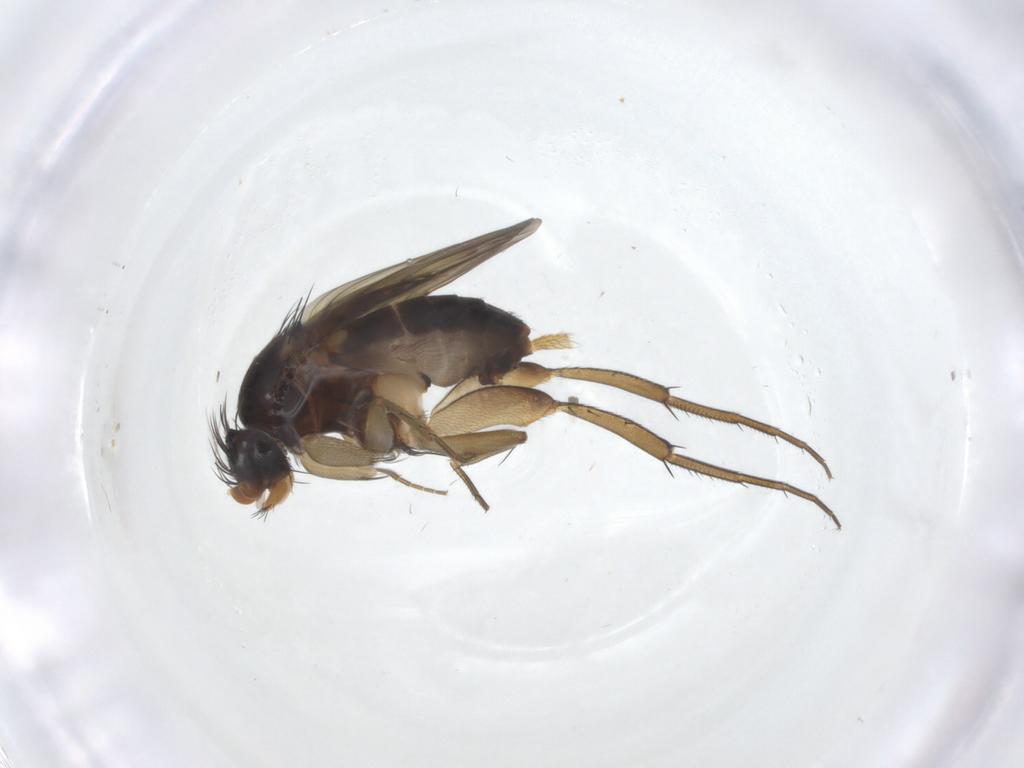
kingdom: Animalia
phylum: Arthropoda
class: Insecta
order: Diptera
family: Phoridae
